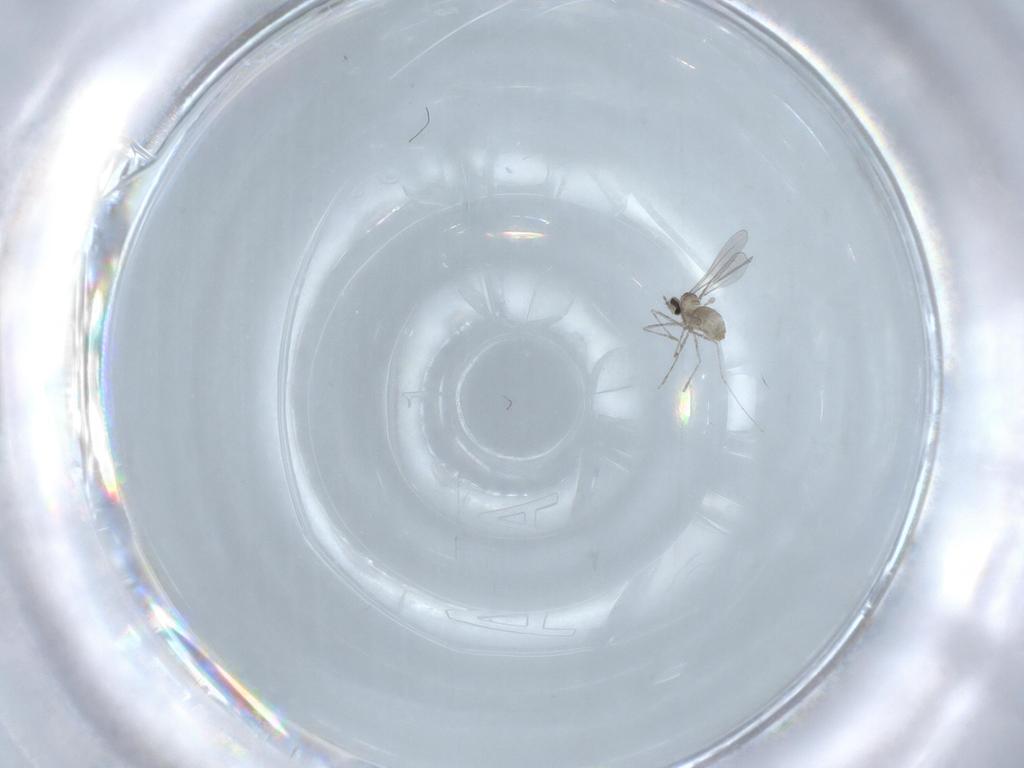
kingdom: Animalia
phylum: Arthropoda
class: Insecta
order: Diptera
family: Cecidomyiidae
